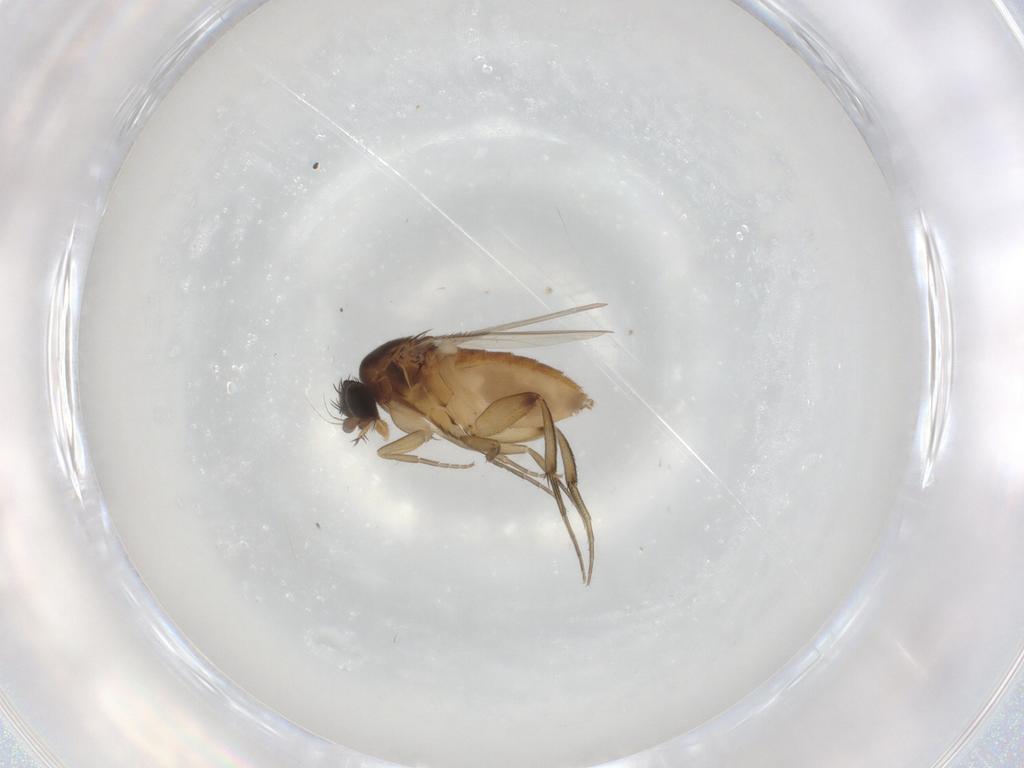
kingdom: Animalia
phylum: Arthropoda
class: Insecta
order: Diptera
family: Phoridae
